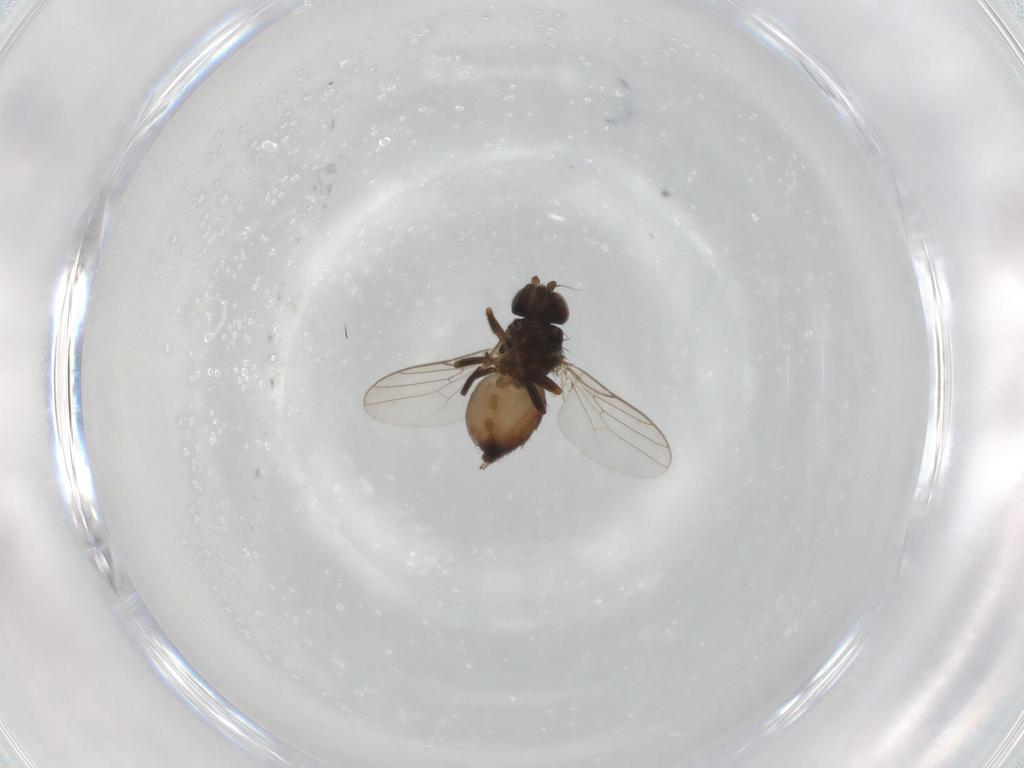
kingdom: Animalia
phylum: Arthropoda
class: Insecta
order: Diptera
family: Chloropidae
